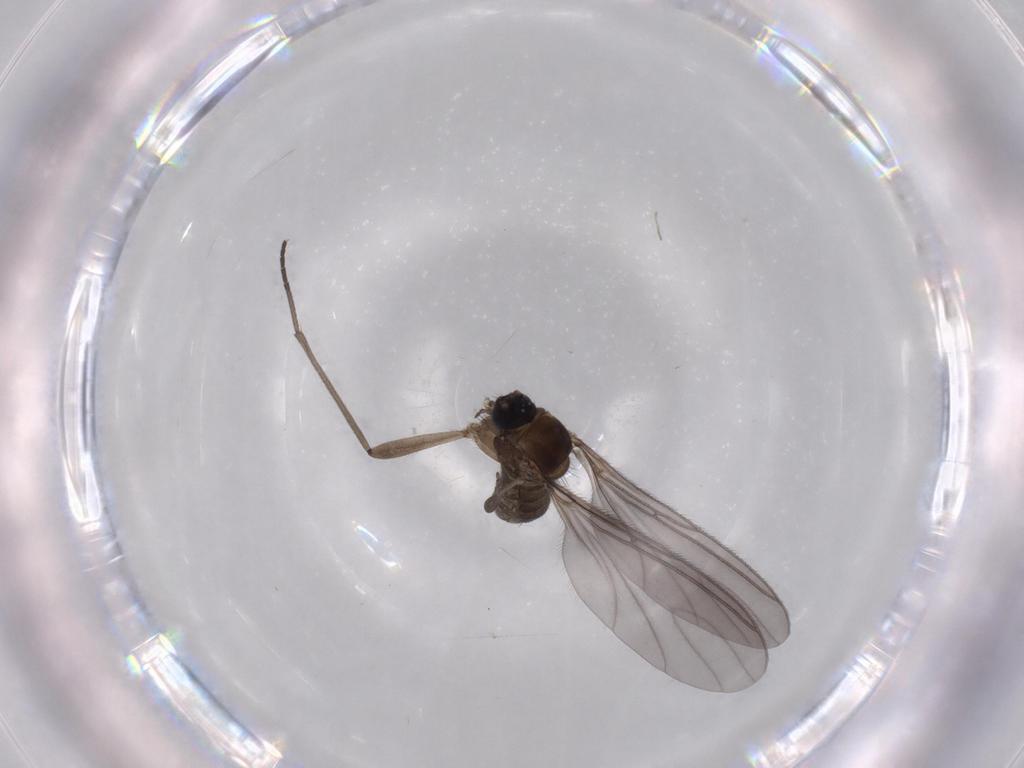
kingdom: Animalia
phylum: Arthropoda
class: Insecta
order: Diptera
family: Sciaridae
